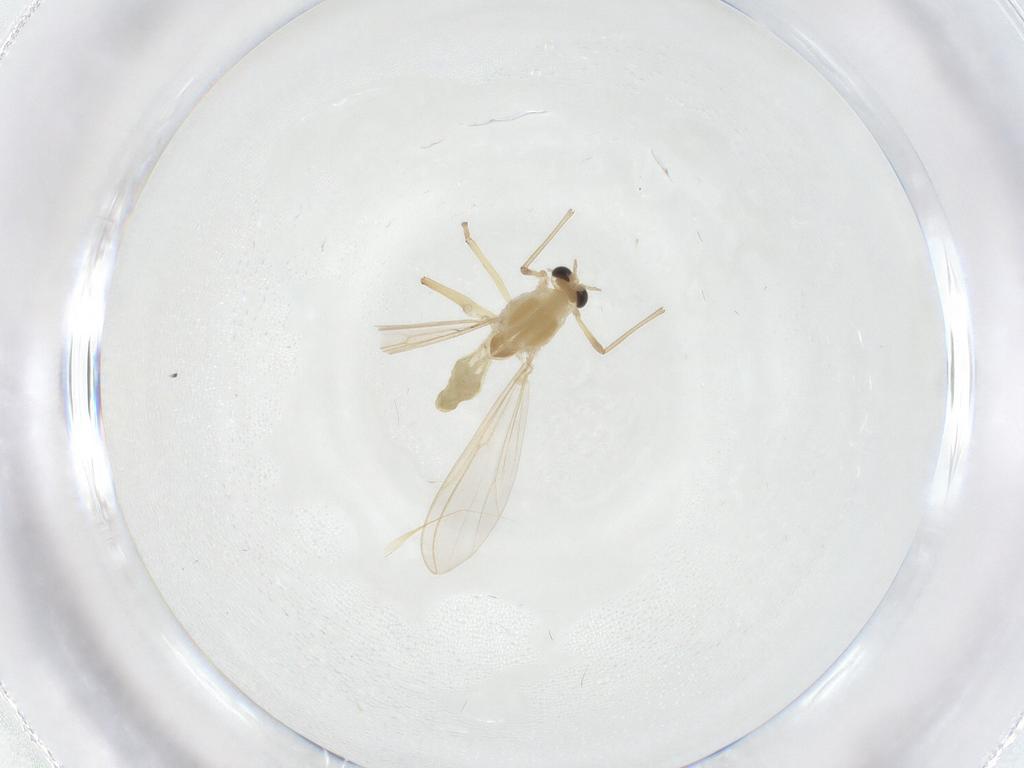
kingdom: Animalia
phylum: Arthropoda
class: Insecta
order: Diptera
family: Chironomidae
